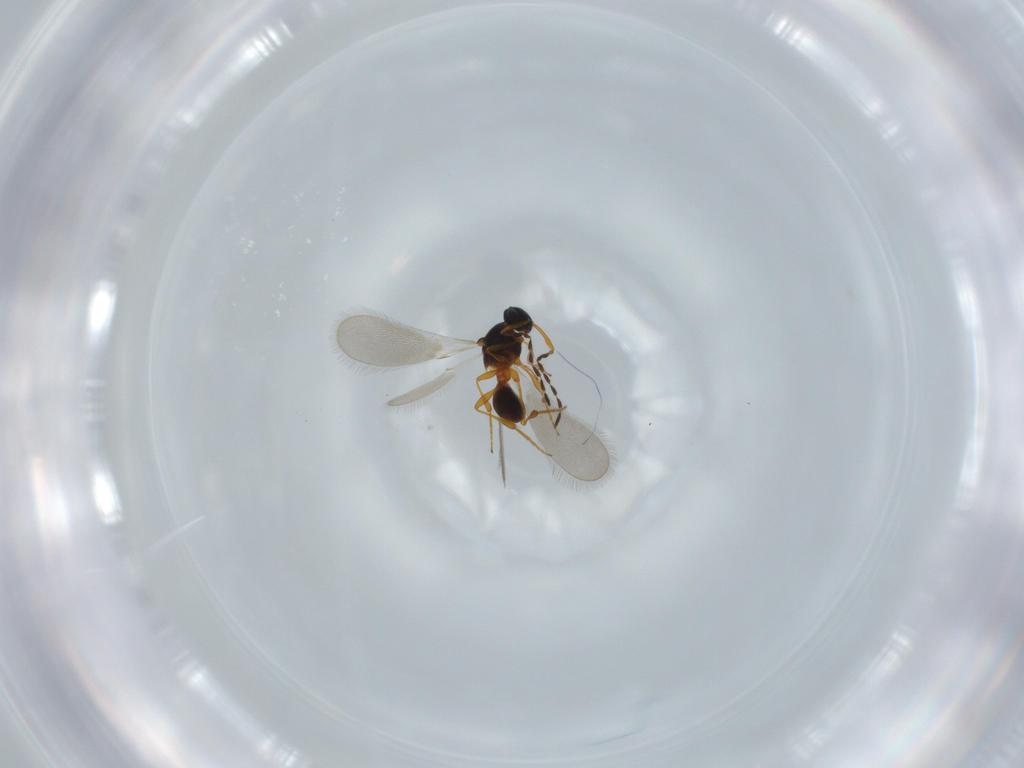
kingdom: Animalia
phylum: Arthropoda
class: Insecta
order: Hymenoptera
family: Platygastridae
